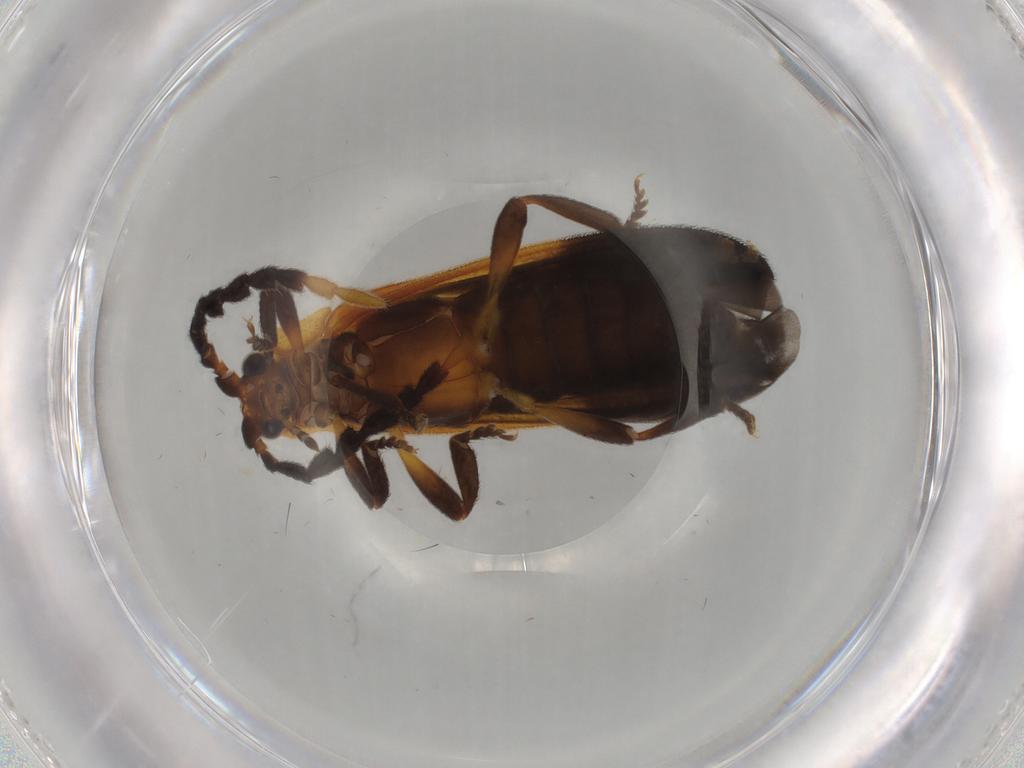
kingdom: Animalia
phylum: Arthropoda
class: Insecta
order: Coleoptera
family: Lycidae
